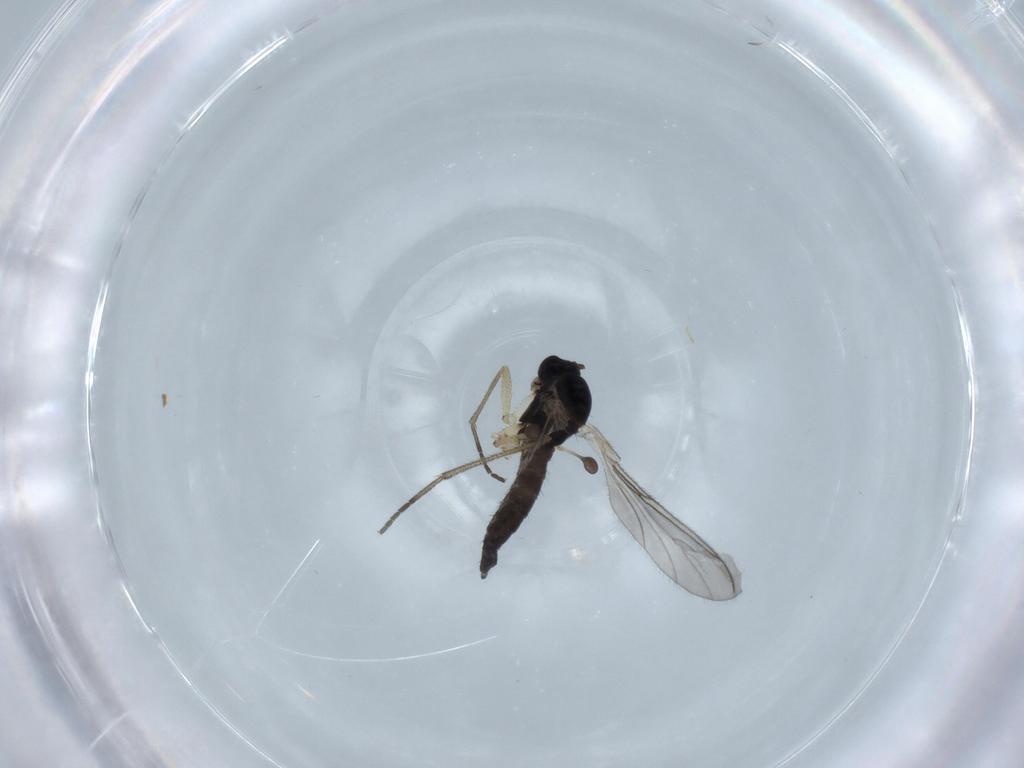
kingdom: Animalia
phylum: Arthropoda
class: Insecta
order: Diptera
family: Sciaridae
